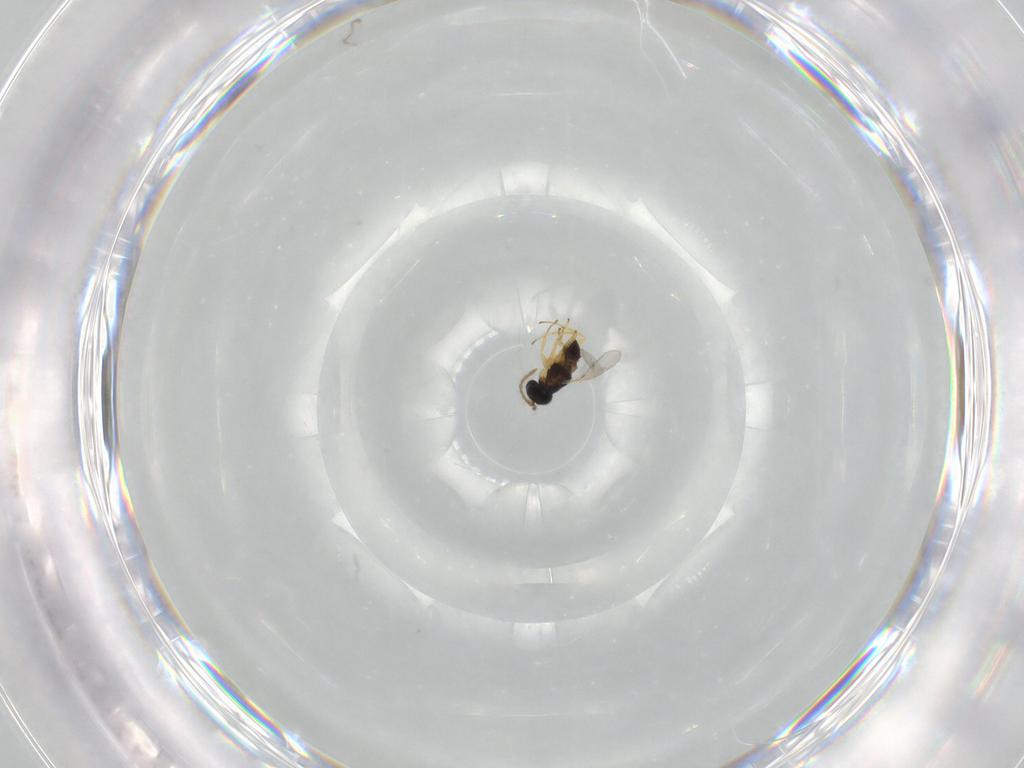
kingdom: Animalia
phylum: Arthropoda
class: Insecta
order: Hymenoptera
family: Encyrtidae
